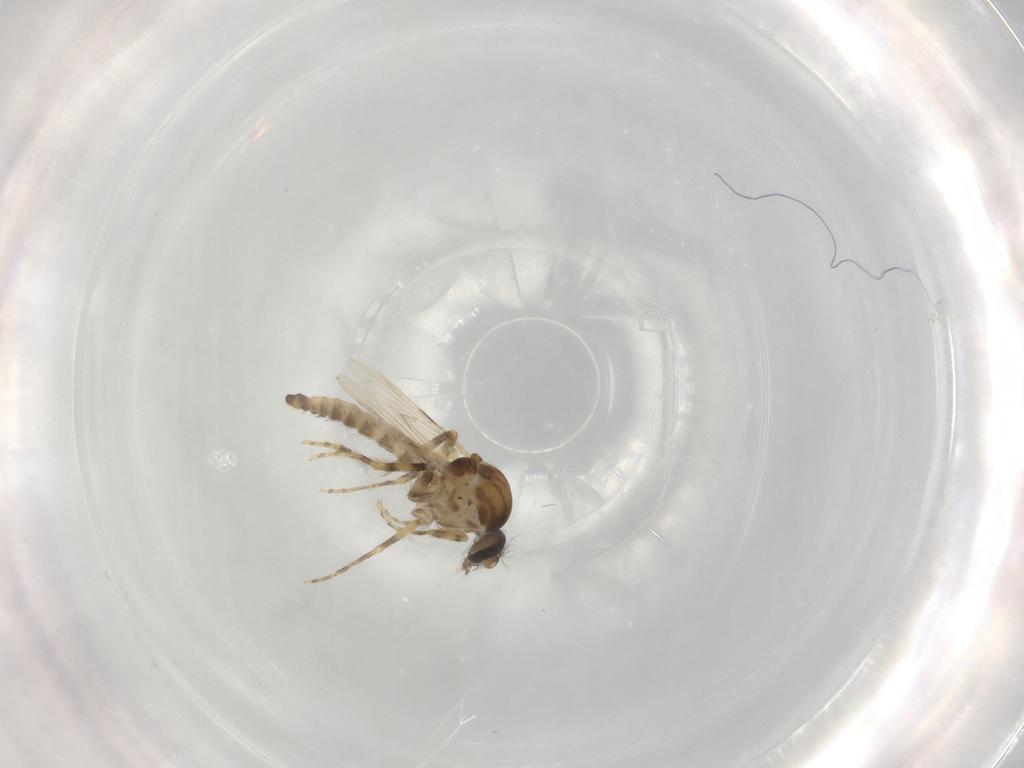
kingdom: Animalia
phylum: Arthropoda
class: Insecta
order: Diptera
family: Ceratopogonidae
